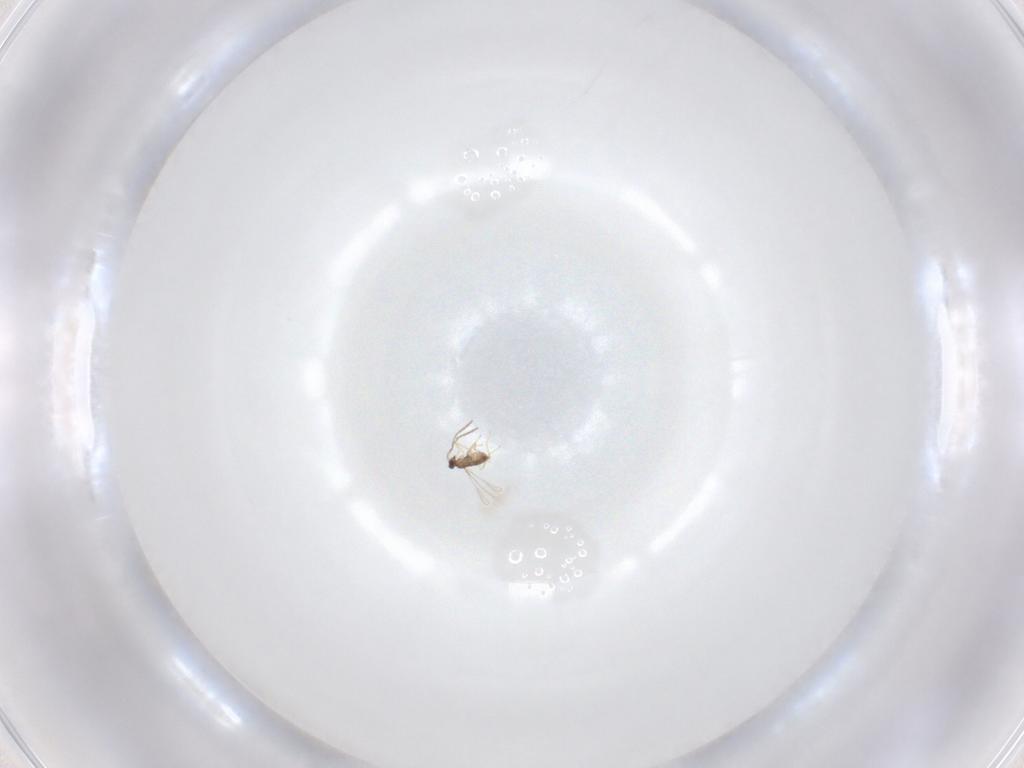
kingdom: Animalia
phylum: Arthropoda
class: Insecta
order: Hymenoptera
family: Mymaridae
